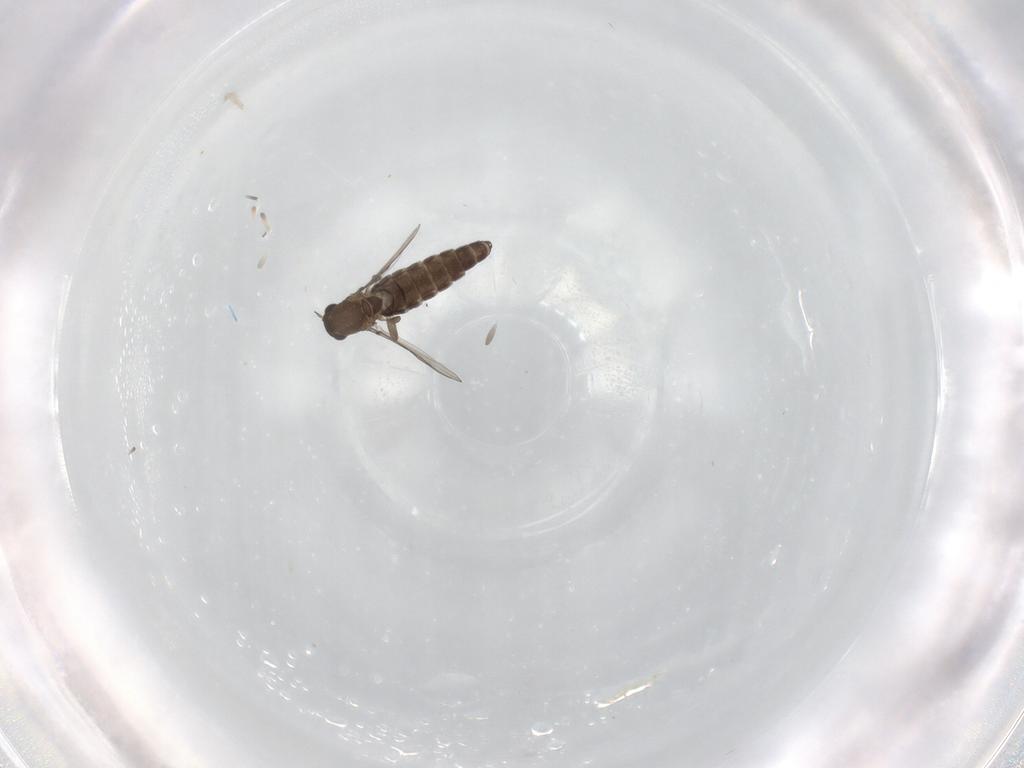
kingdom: Animalia
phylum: Arthropoda
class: Insecta
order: Diptera
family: Chironomidae
